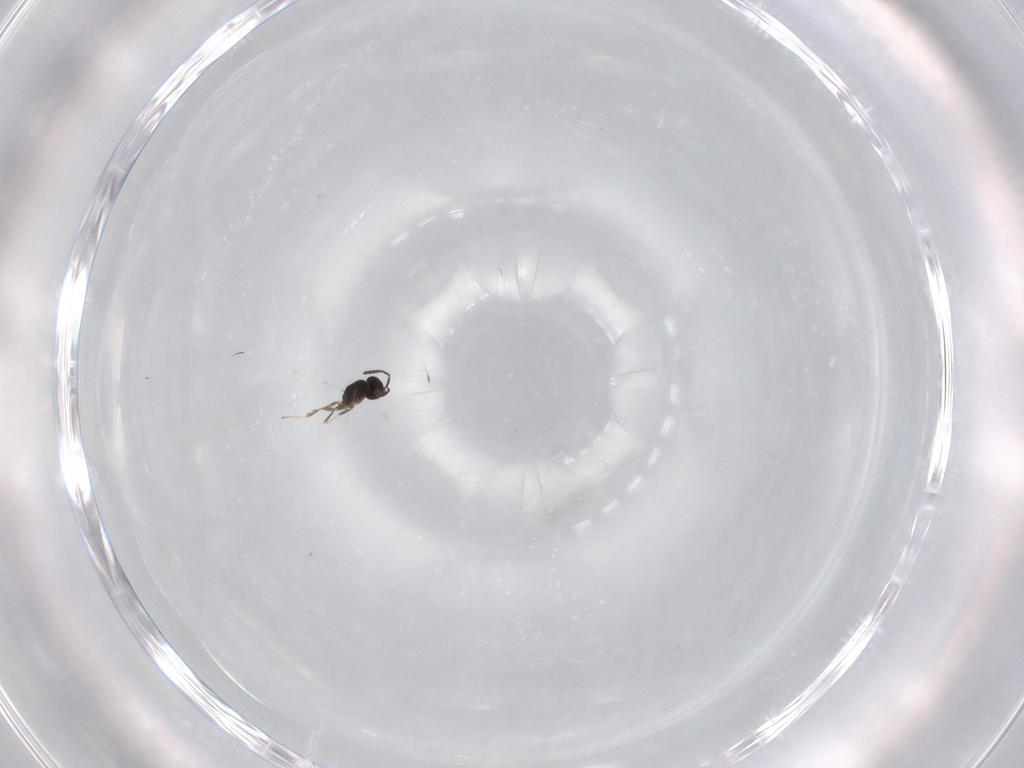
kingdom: Animalia
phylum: Arthropoda
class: Insecta
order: Hymenoptera
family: Scelionidae
